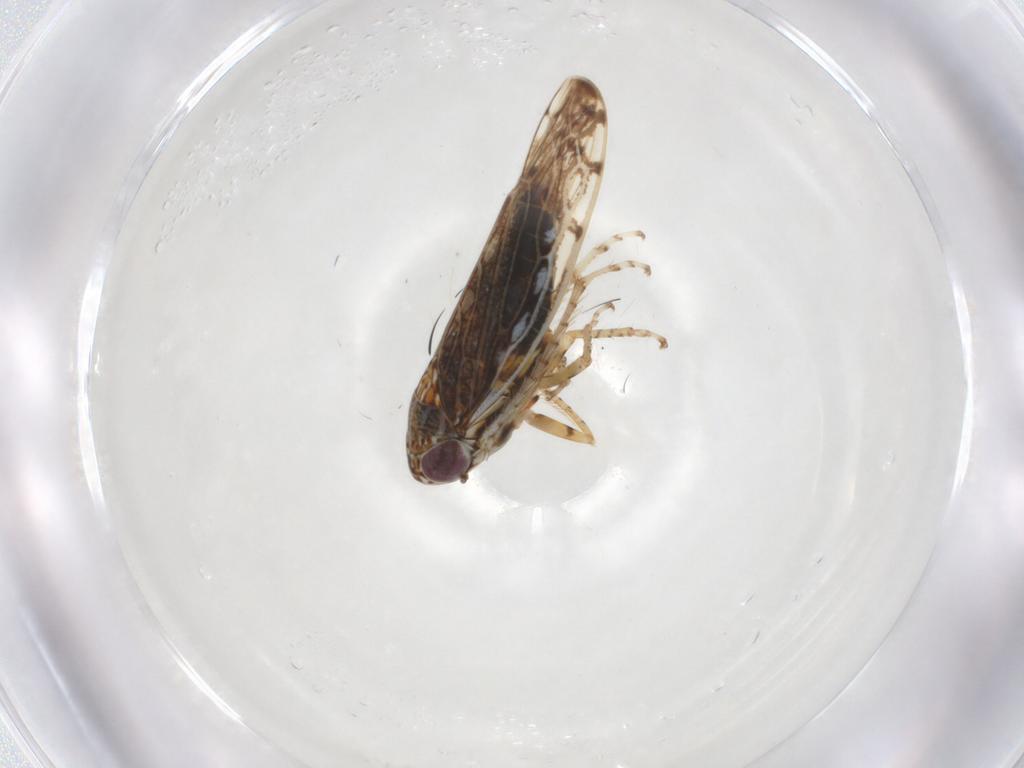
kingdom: Animalia
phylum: Arthropoda
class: Insecta
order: Hemiptera
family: Cicadellidae
